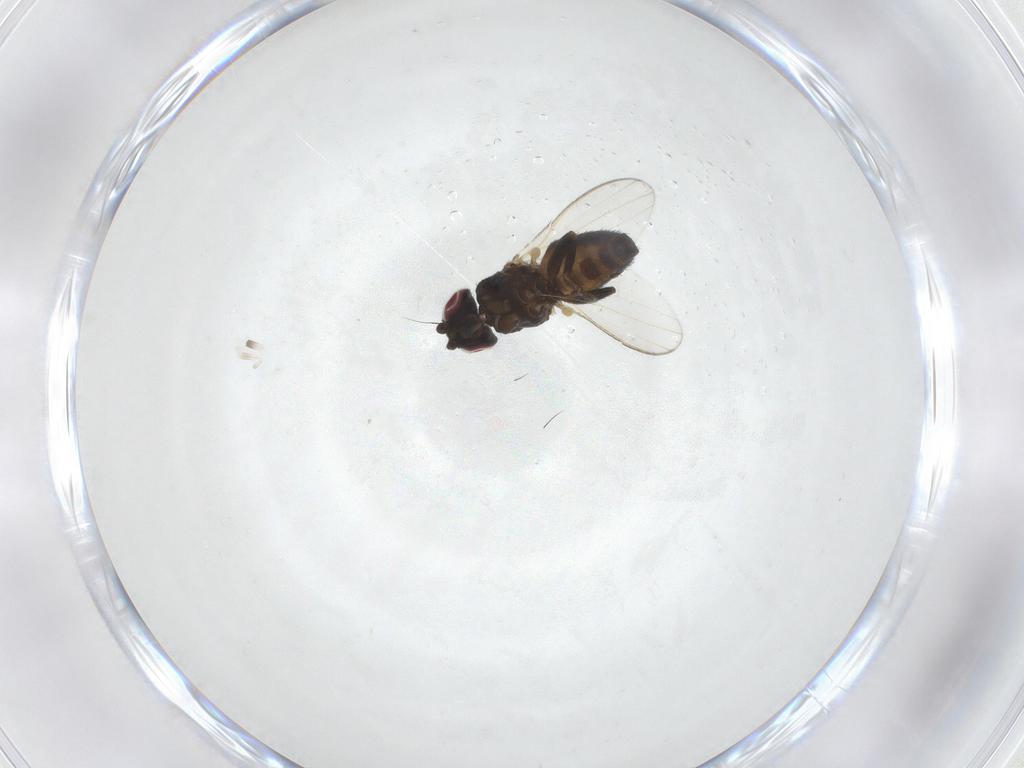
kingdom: Animalia
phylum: Arthropoda
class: Insecta
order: Diptera
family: Milichiidae
